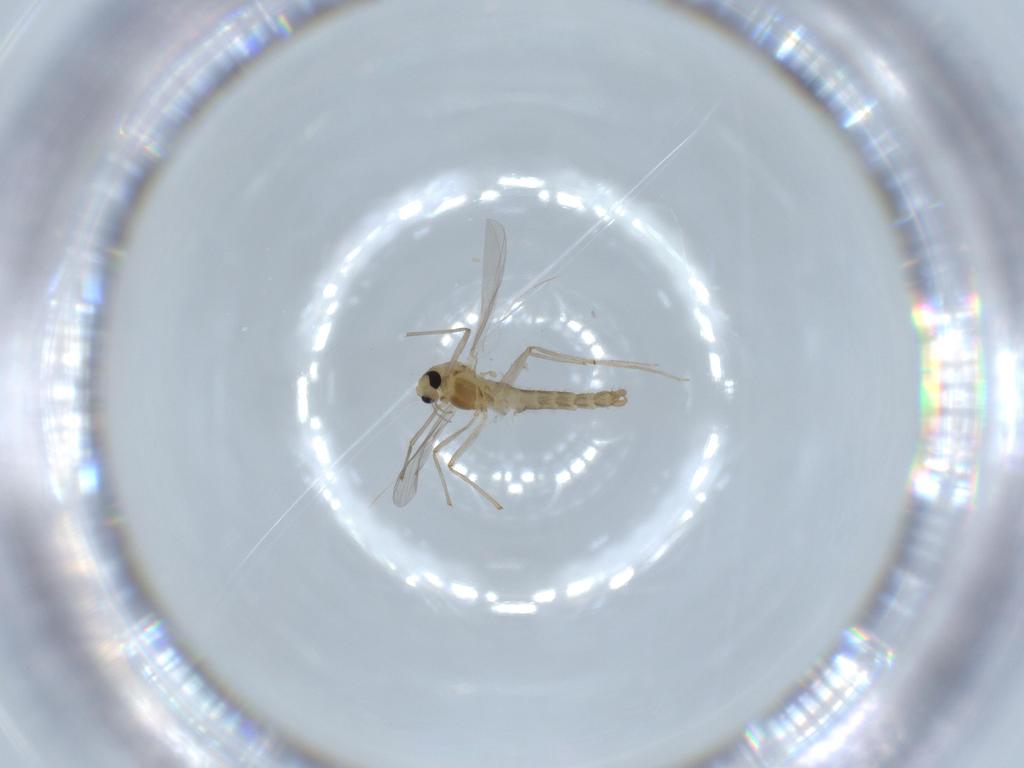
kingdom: Animalia
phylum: Arthropoda
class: Insecta
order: Diptera
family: Chironomidae
